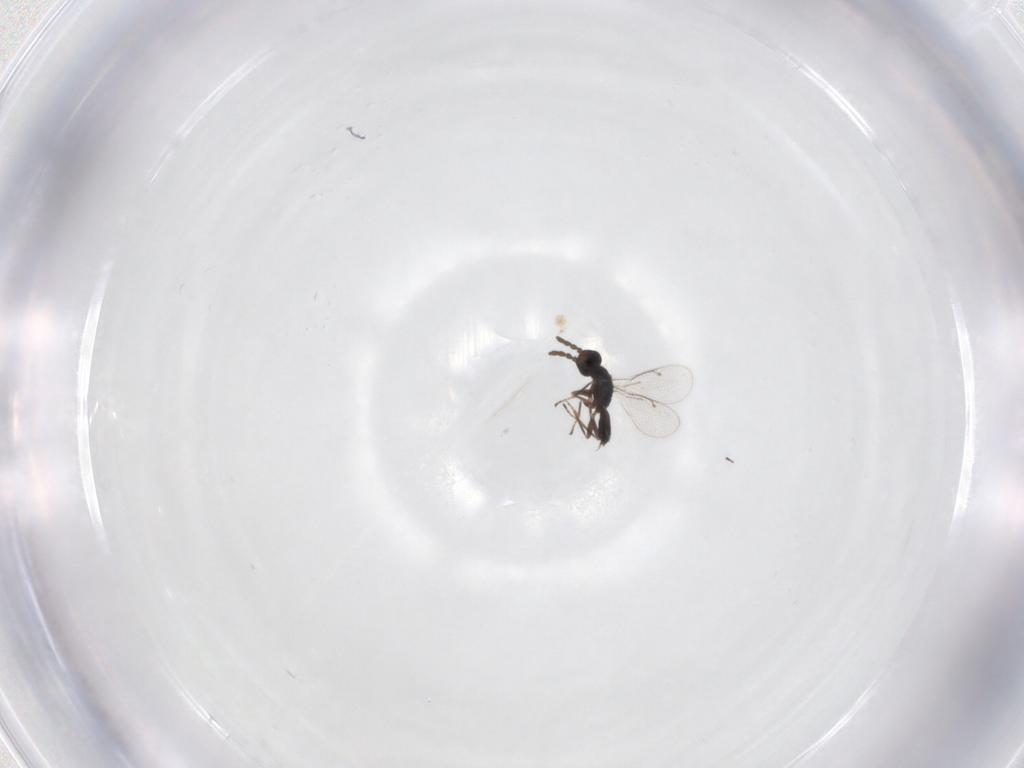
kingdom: Animalia
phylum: Arthropoda
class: Insecta
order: Hymenoptera
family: Eulophidae
